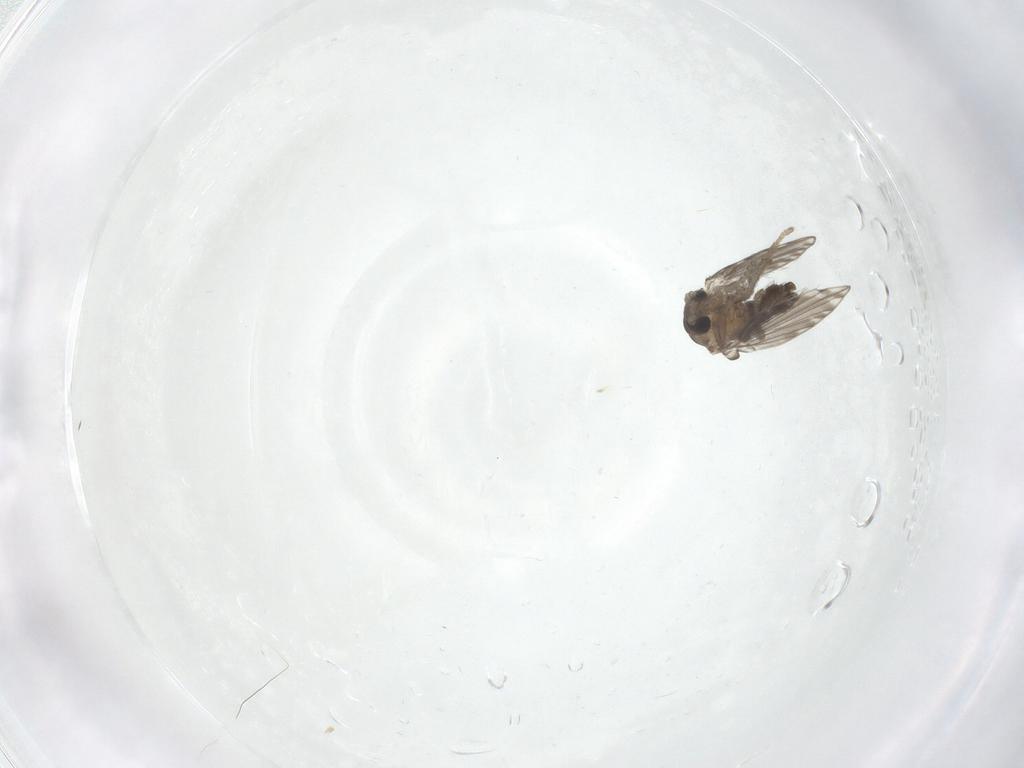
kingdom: Animalia
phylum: Arthropoda
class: Insecta
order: Diptera
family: Psychodidae
